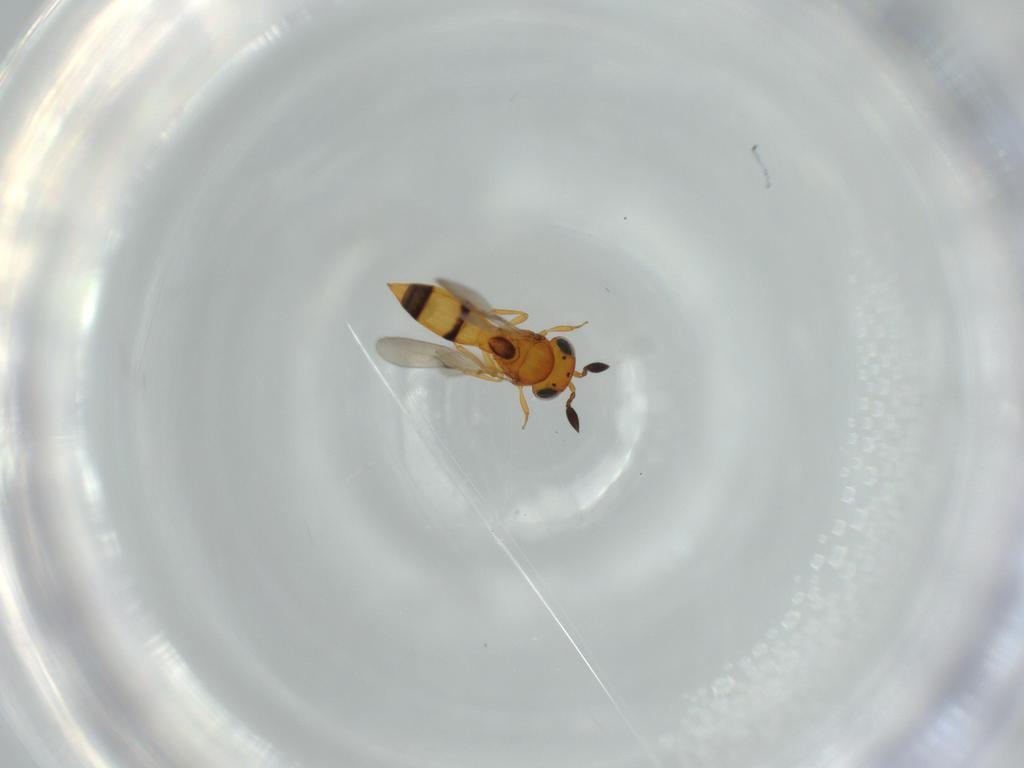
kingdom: Animalia
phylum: Arthropoda
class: Insecta
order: Hymenoptera
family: Scelionidae
